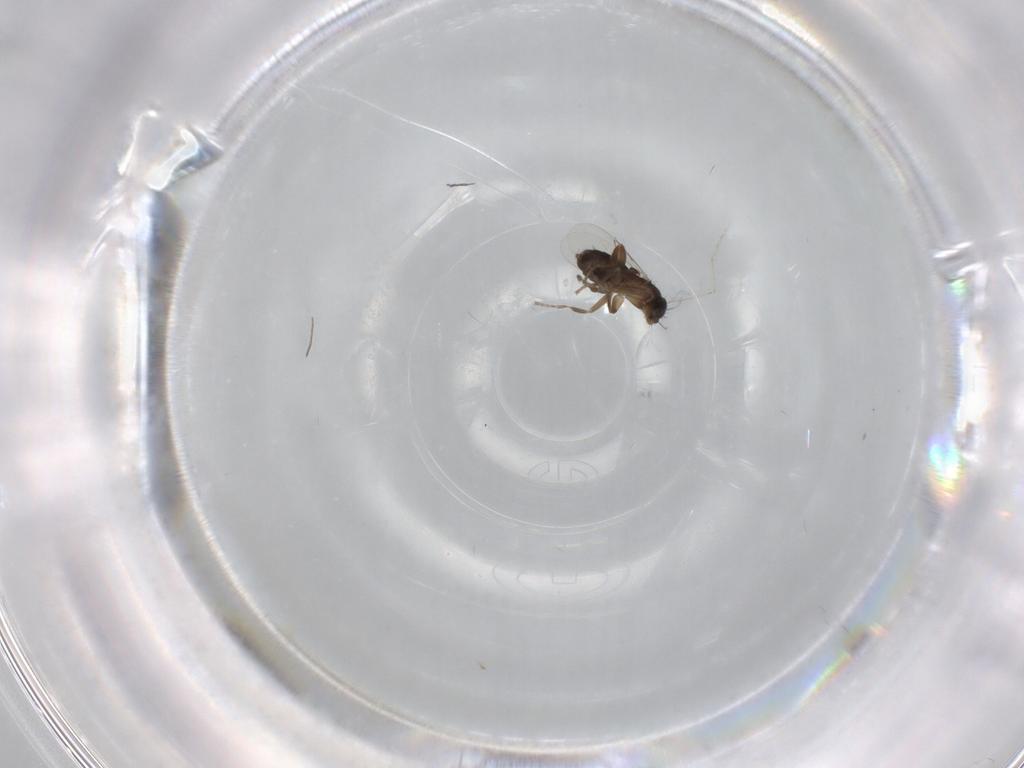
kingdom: Animalia
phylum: Arthropoda
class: Insecta
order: Diptera
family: Phoridae
